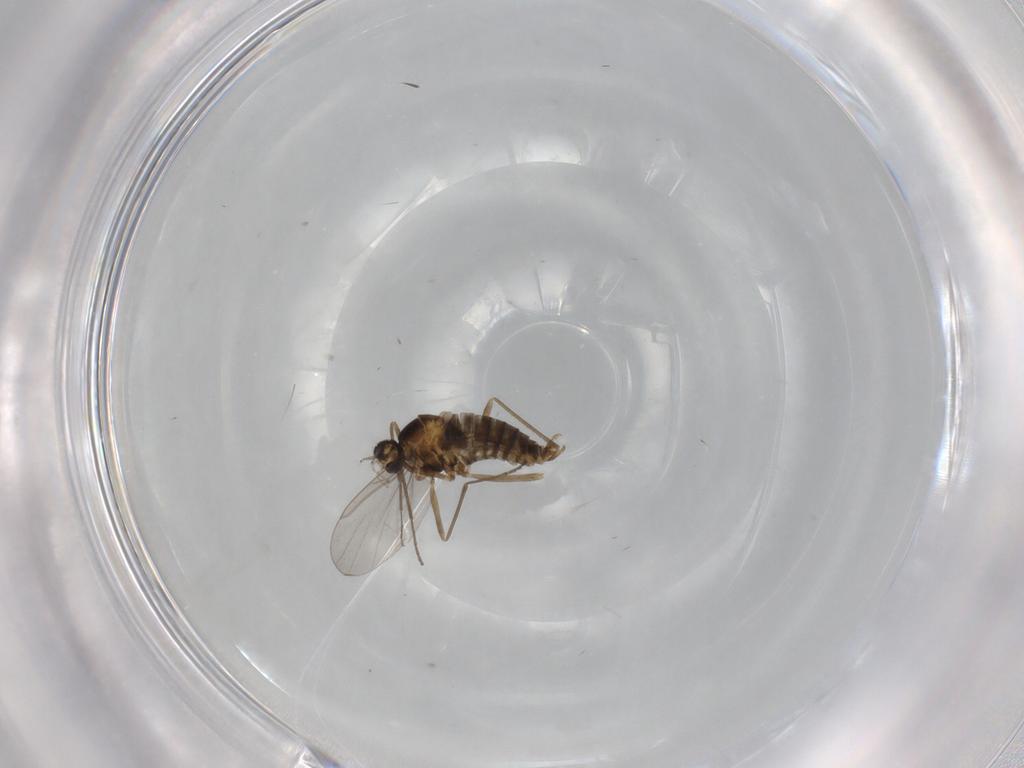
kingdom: Animalia
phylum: Arthropoda
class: Insecta
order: Diptera
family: Cecidomyiidae
